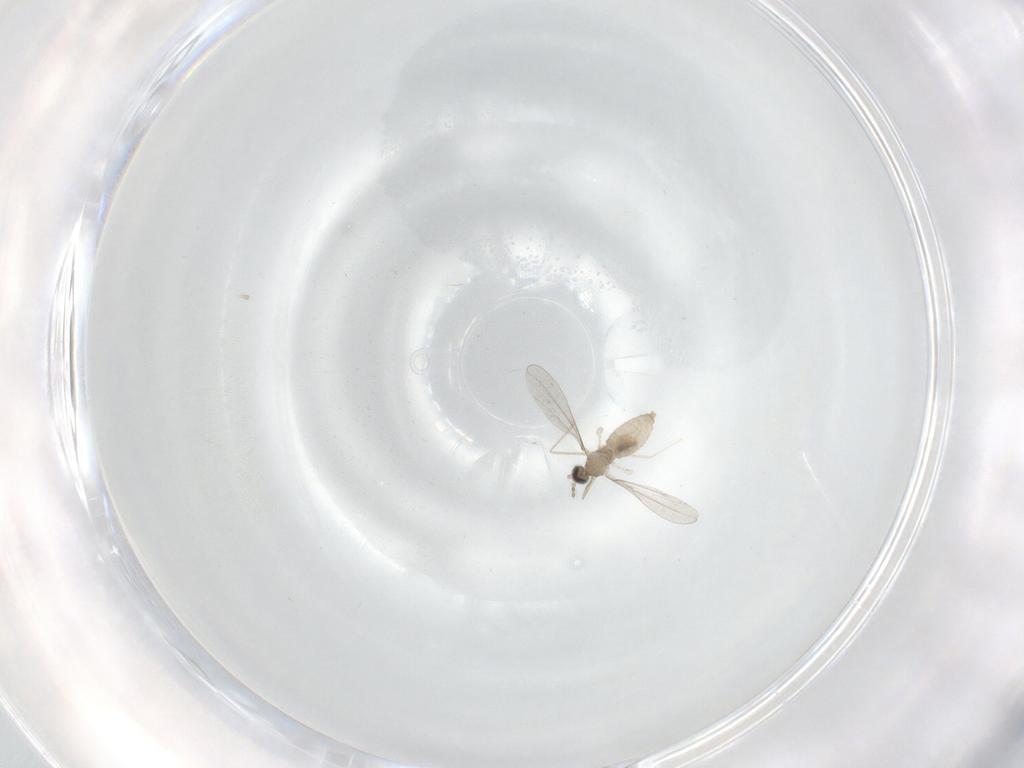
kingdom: Animalia
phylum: Arthropoda
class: Insecta
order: Diptera
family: Cecidomyiidae
